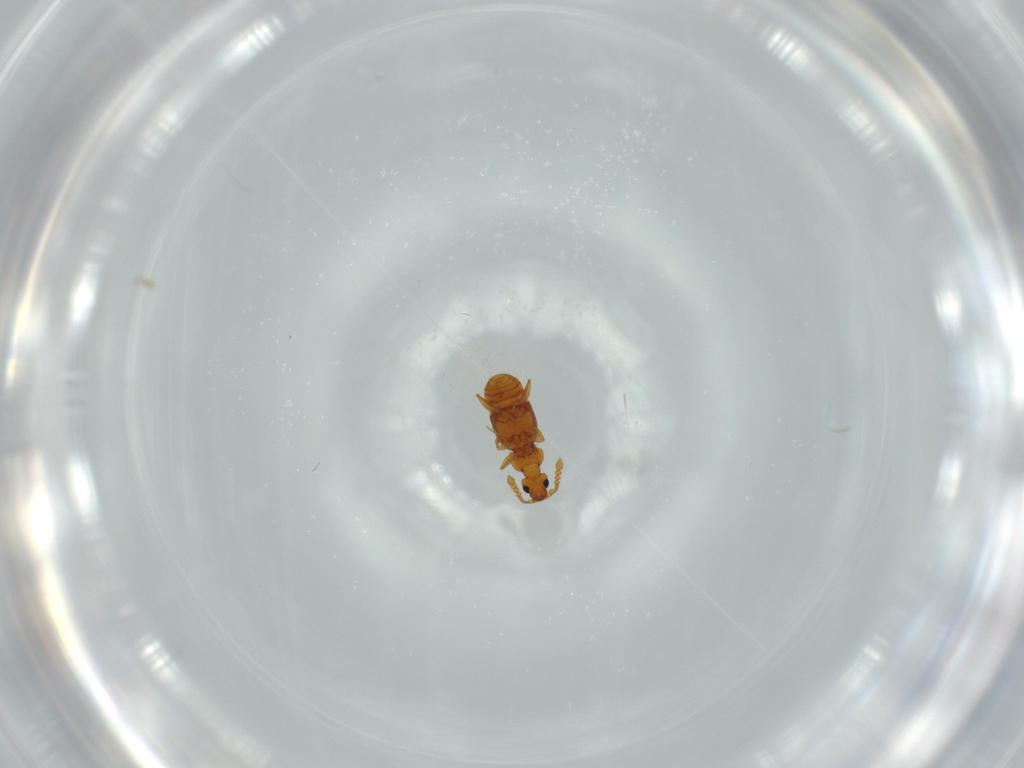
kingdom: Animalia
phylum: Arthropoda
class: Insecta
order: Coleoptera
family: Staphylinidae
